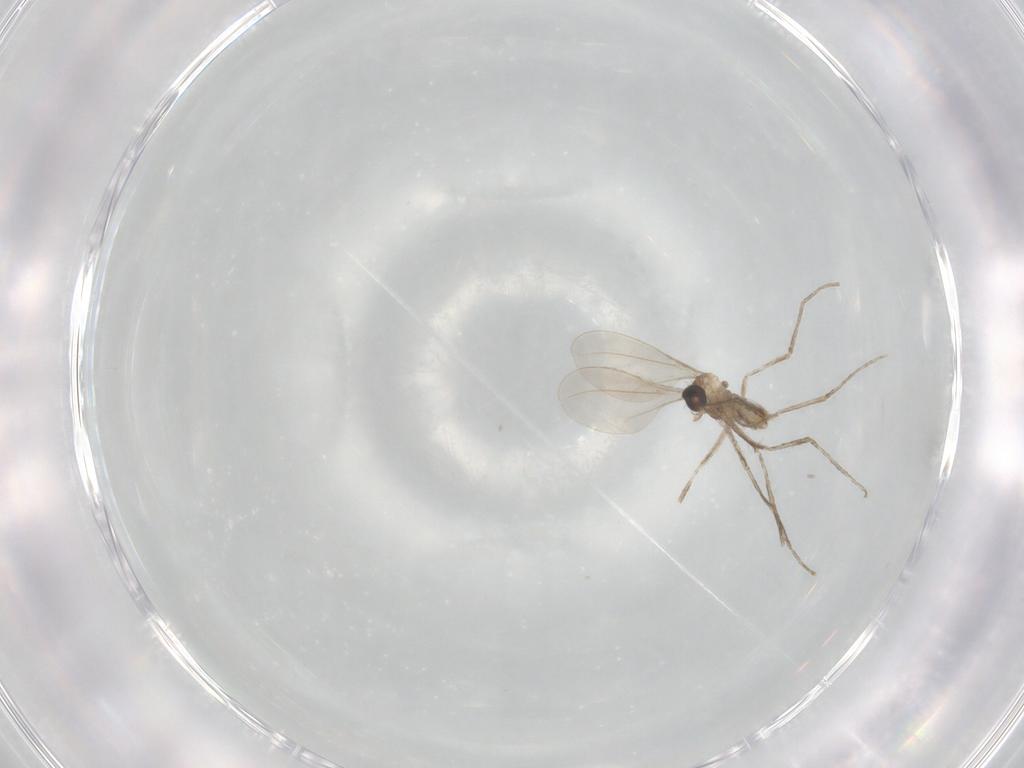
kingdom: Animalia
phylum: Arthropoda
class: Insecta
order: Diptera
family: Cecidomyiidae
